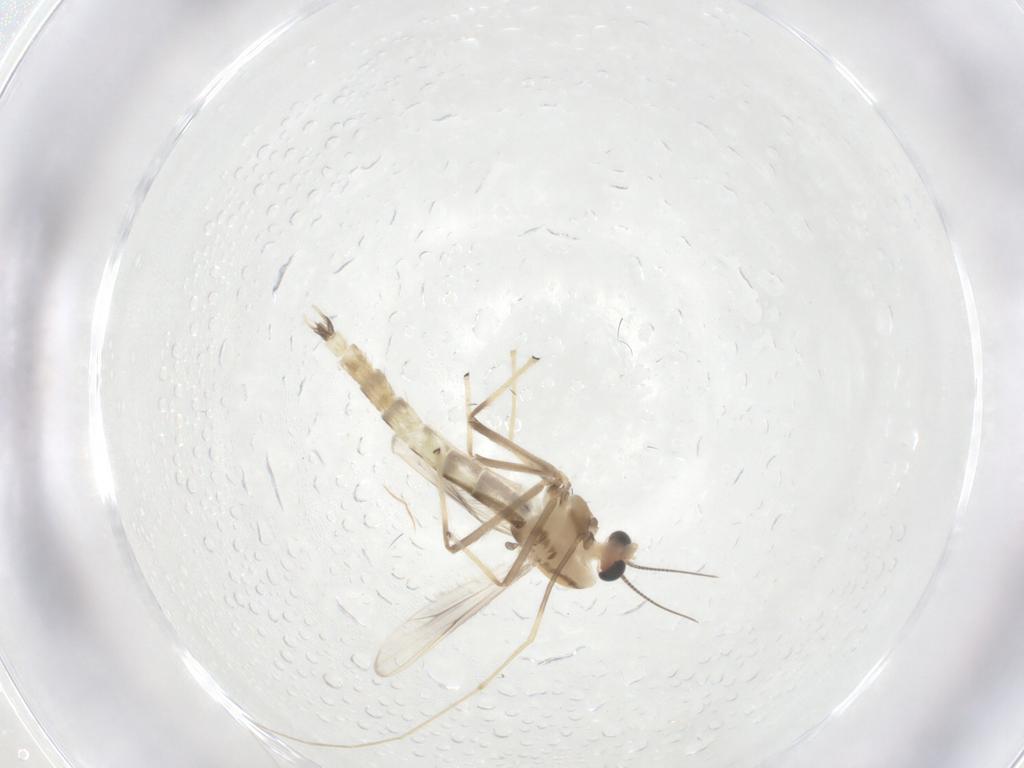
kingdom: Animalia
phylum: Arthropoda
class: Insecta
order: Diptera
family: Chironomidae
